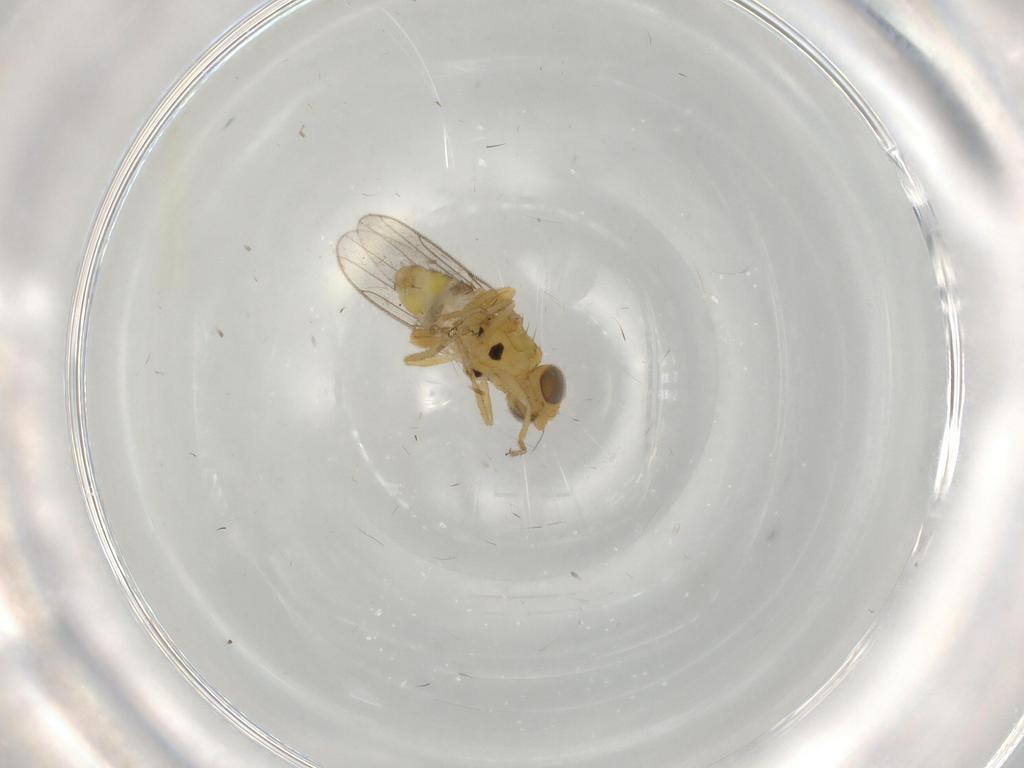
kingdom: Animalia
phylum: Arthropoda
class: Insecta
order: Diptera
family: Chloropidae
